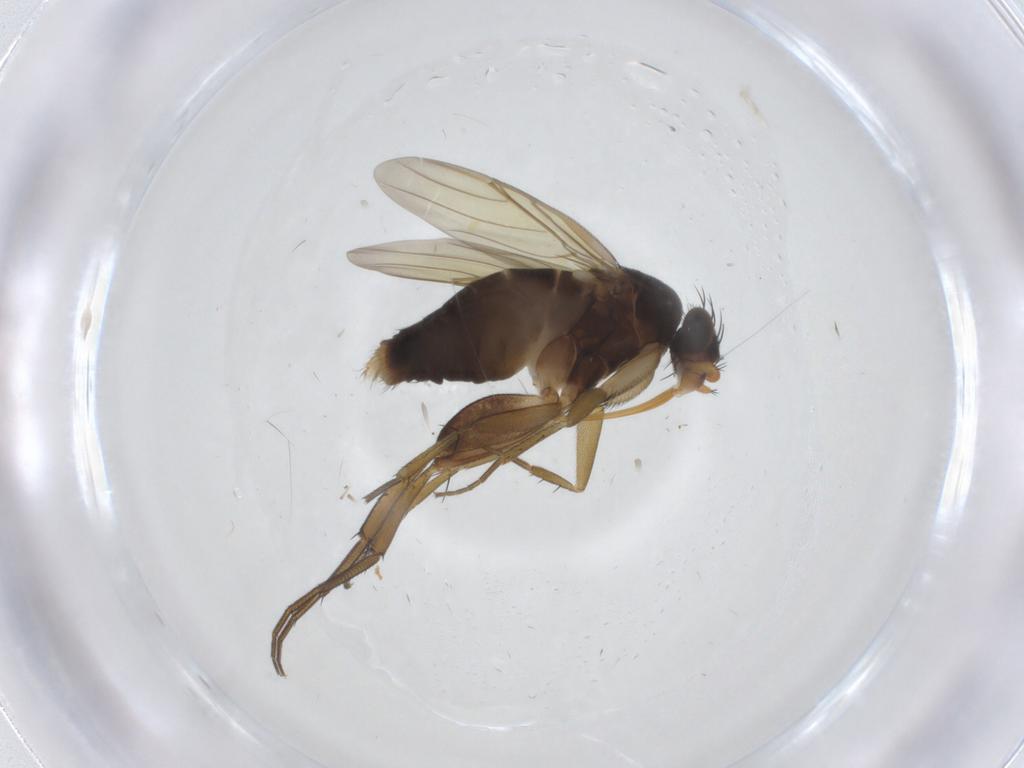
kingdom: Animalia
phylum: Arthropoda
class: Insecta
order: Diptera
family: Phoridae
